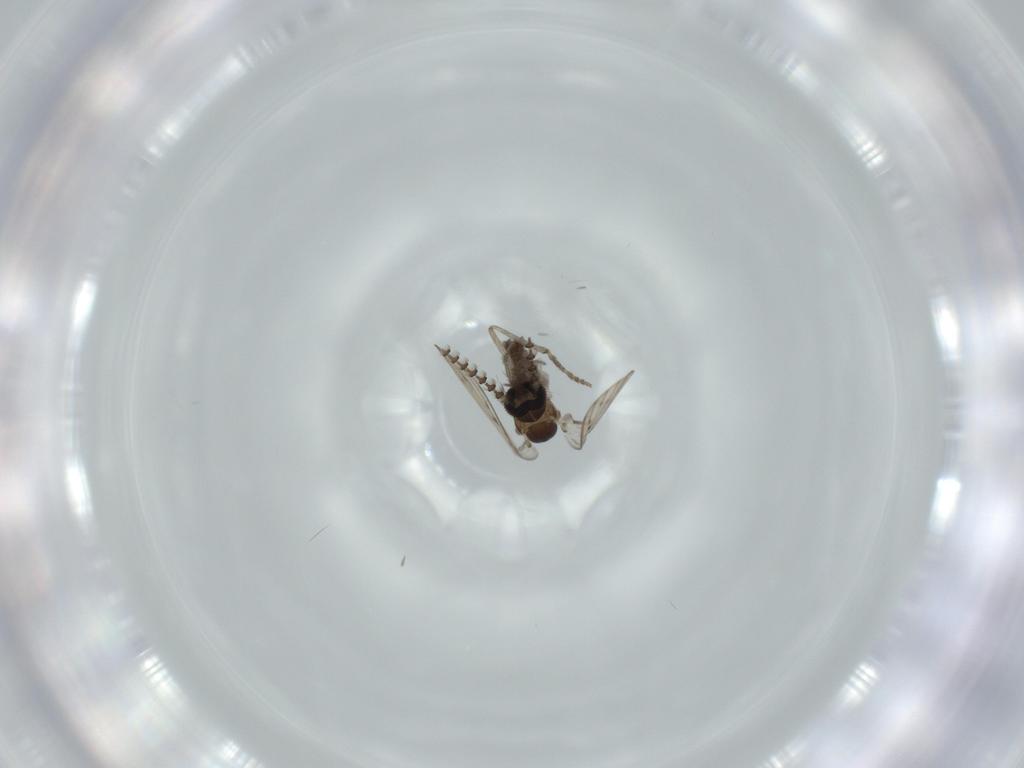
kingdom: Animalia
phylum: Arthropoda
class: Insecta
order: Diptera
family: Psychodidae
